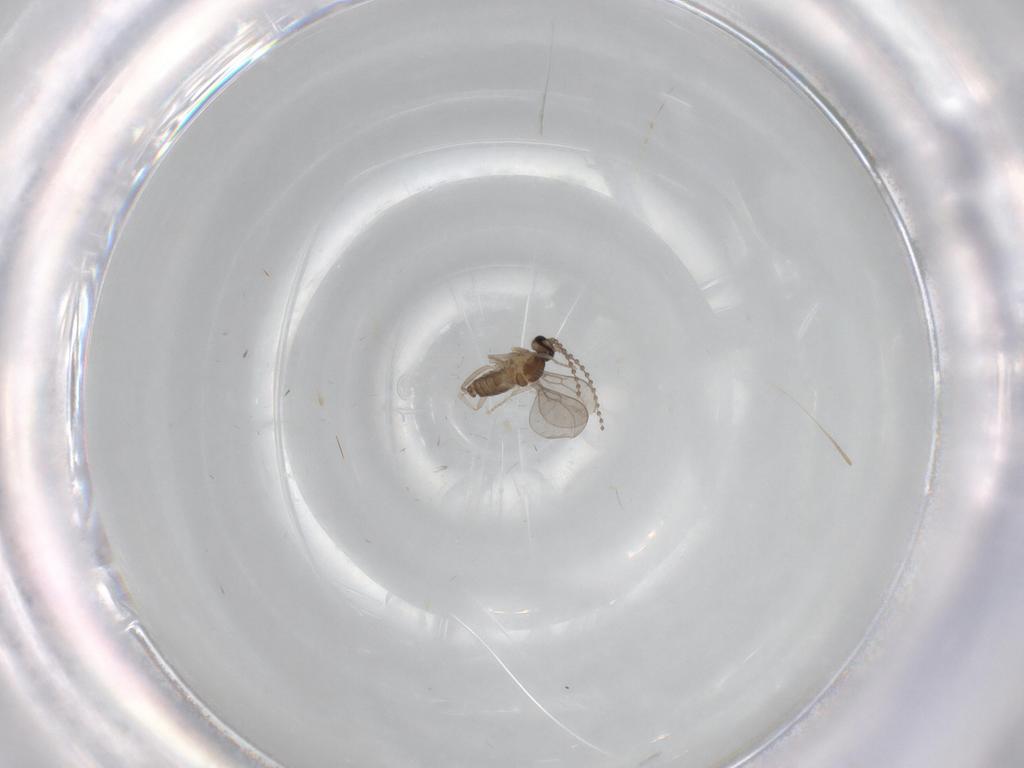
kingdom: Animalia
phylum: Arthropoda
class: Insecta
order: Diptera
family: Cecidomyiidae
